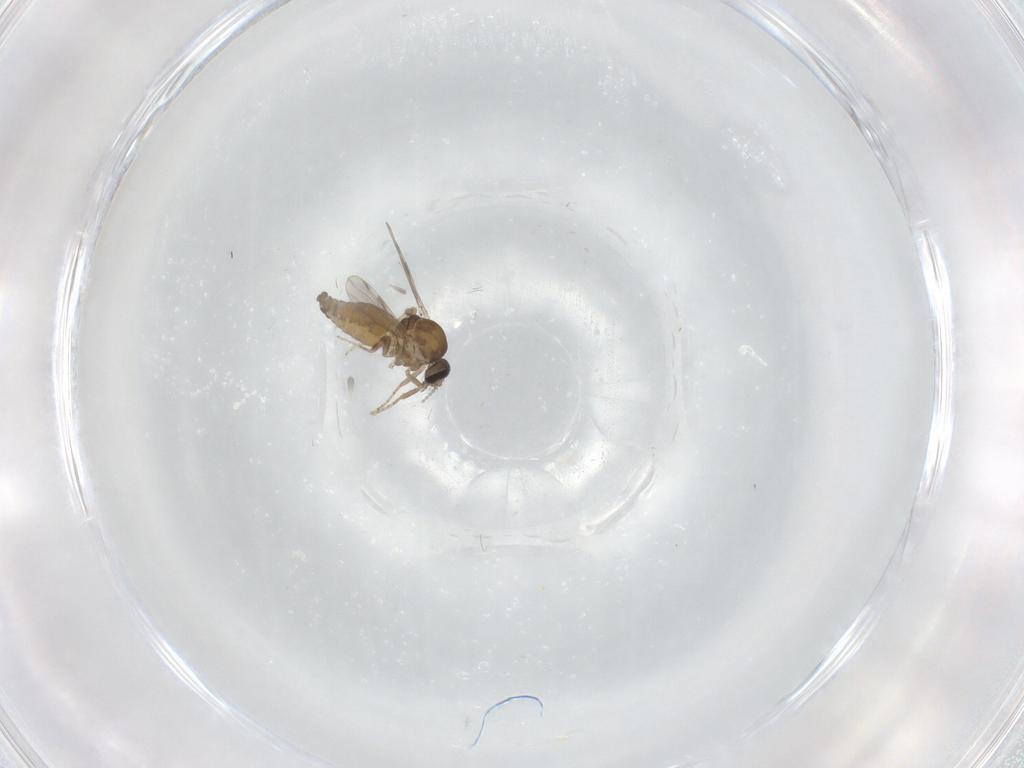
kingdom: Animalia
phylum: Arthropoda
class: Insecta
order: Diptera
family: Ceratopogonidae
